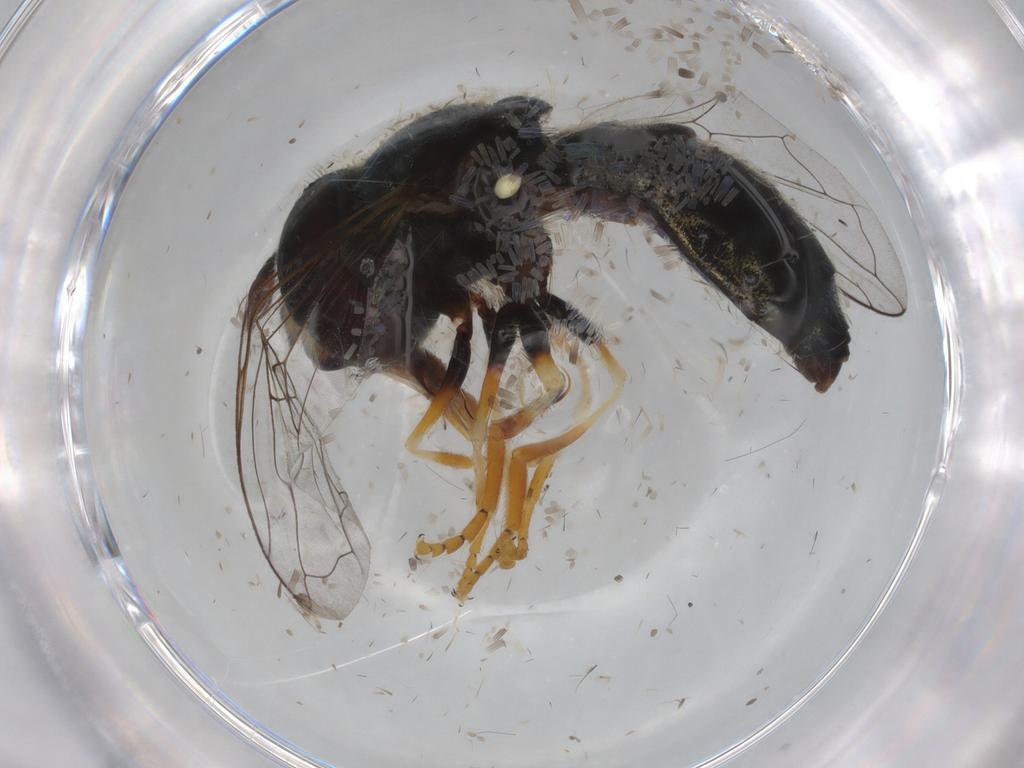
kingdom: Animalia
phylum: Arthropoda
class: Insecta
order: Diptera
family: Syrphidae
